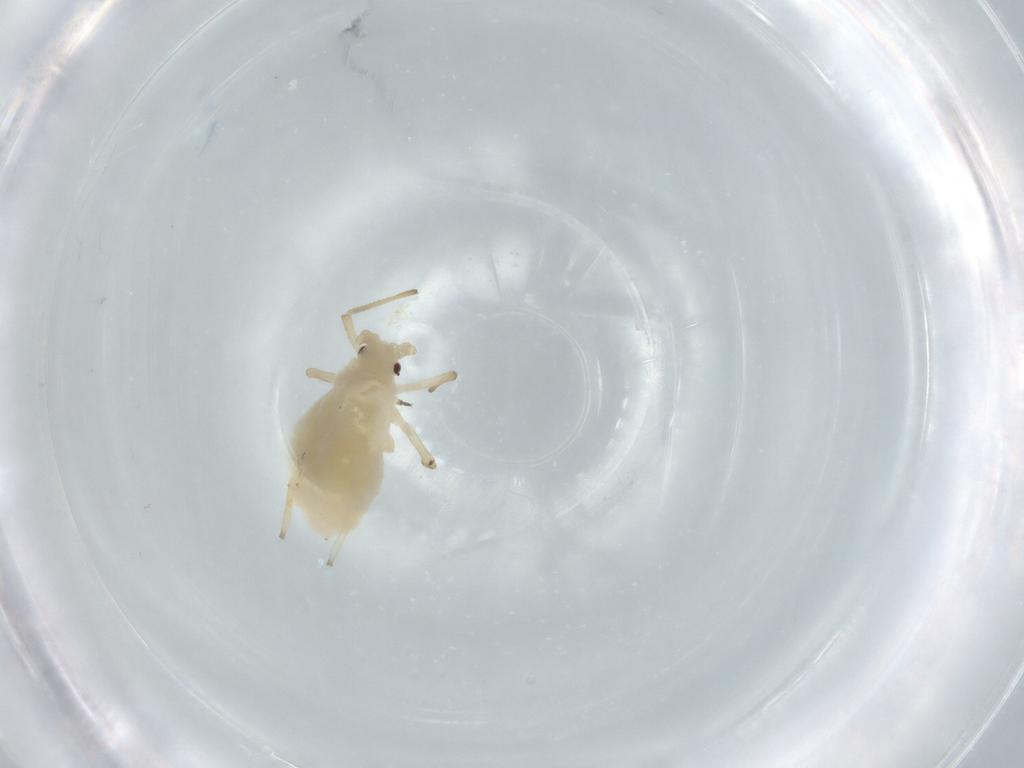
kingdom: Animalia
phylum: Arthropoda
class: Insecta
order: Hemiptera
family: Aphididae
